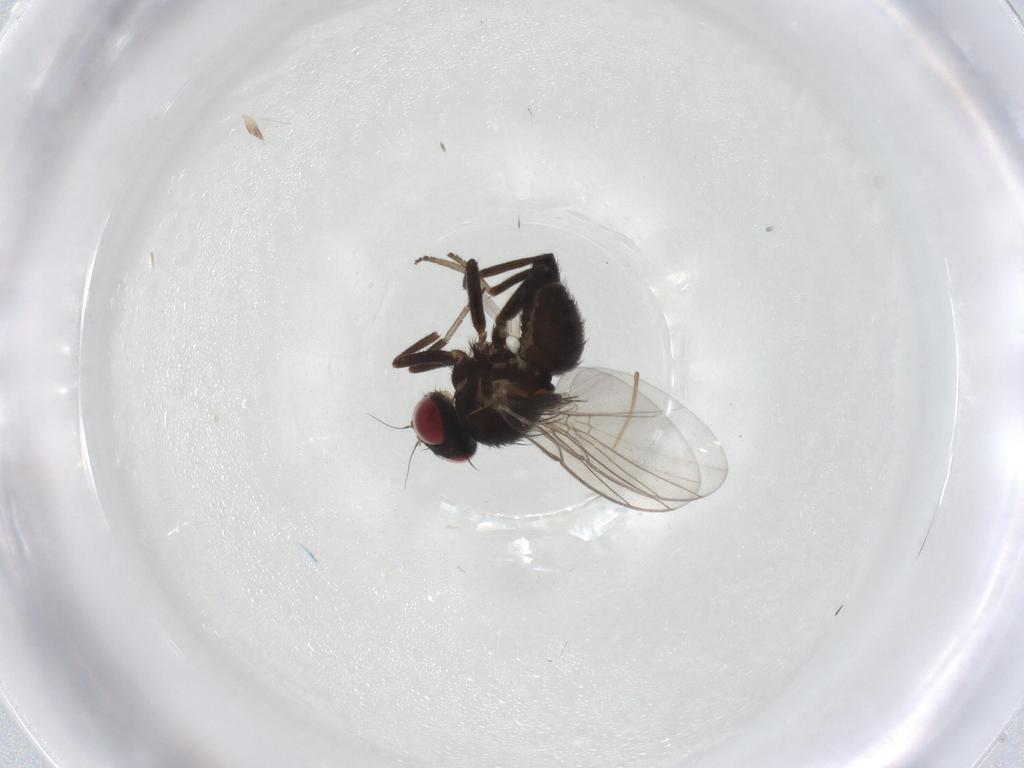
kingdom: Animalia
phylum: Arthropoda
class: Insecta
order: Diptera
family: Agromyzidae
